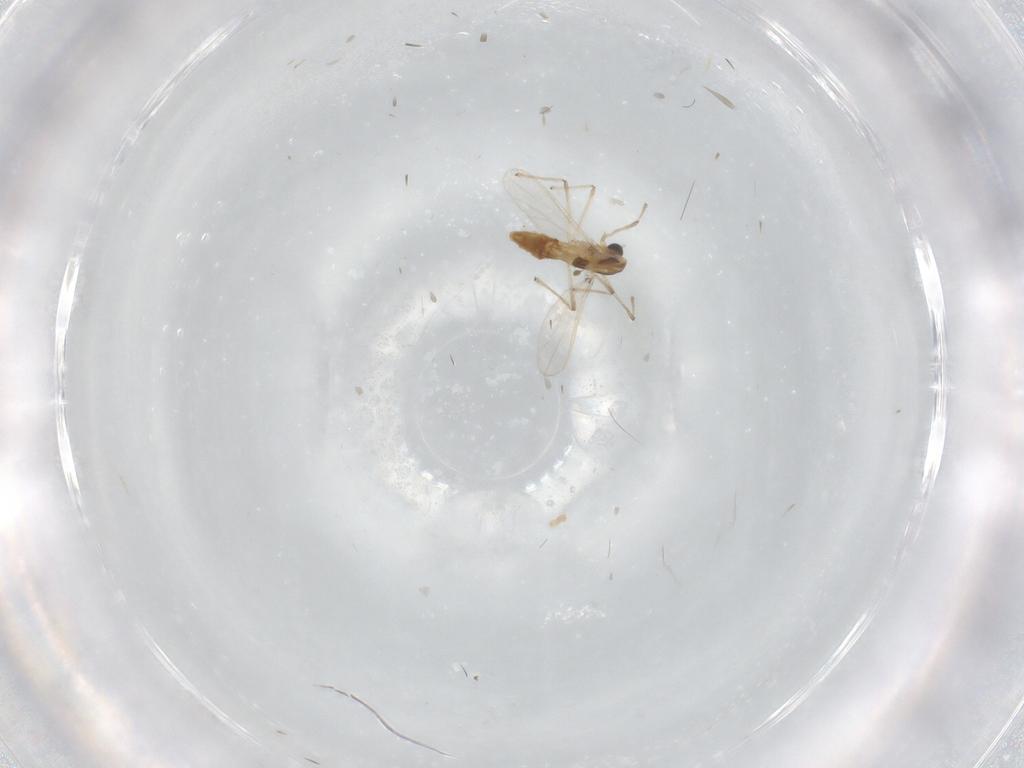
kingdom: Animalia
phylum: Arthropoda
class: Insecta
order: Diptera
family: Chironomidae
